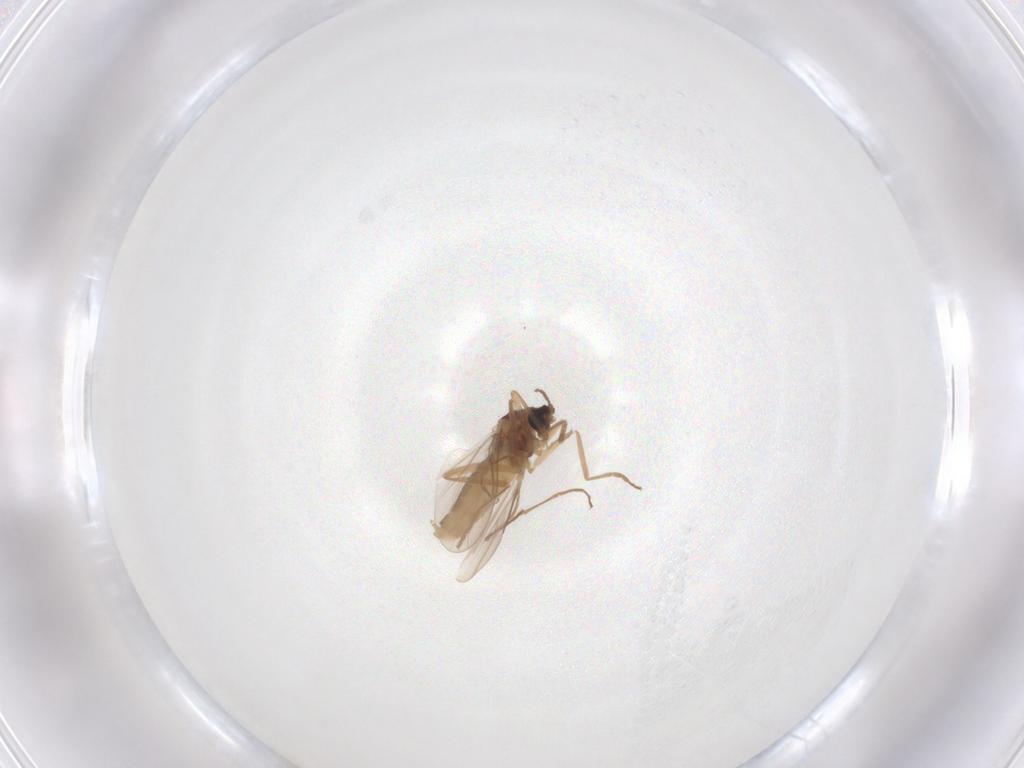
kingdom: Animalia
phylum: Arthropoda
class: Insecta
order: Diptera
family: Cecidomyiidae
